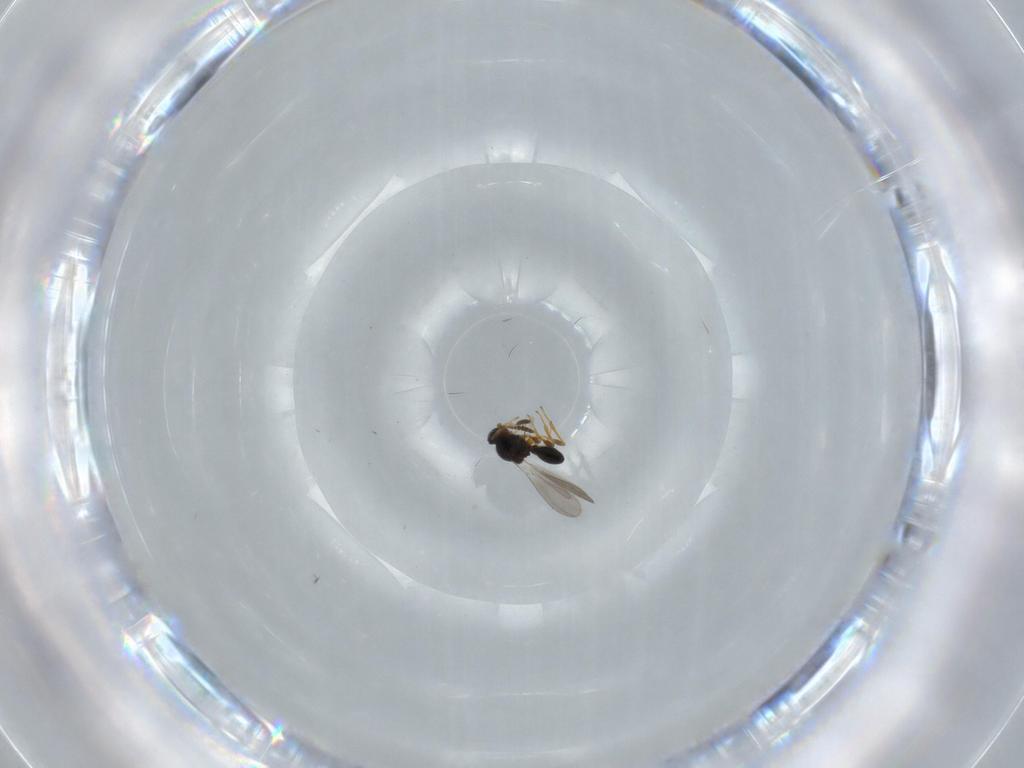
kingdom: Animalia
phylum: Arthropoda
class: Insecta
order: Hymenoptera
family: Platygastridae
